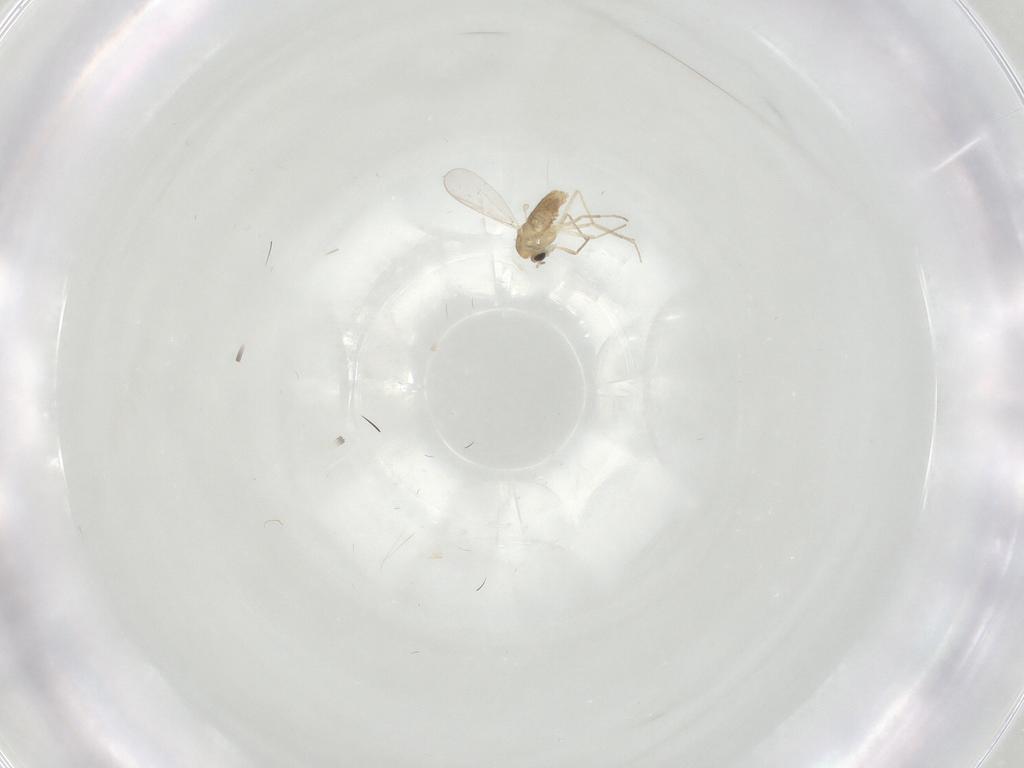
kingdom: Animalia
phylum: Arthropoda
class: Insecta
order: Diptera
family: Chironomidae
